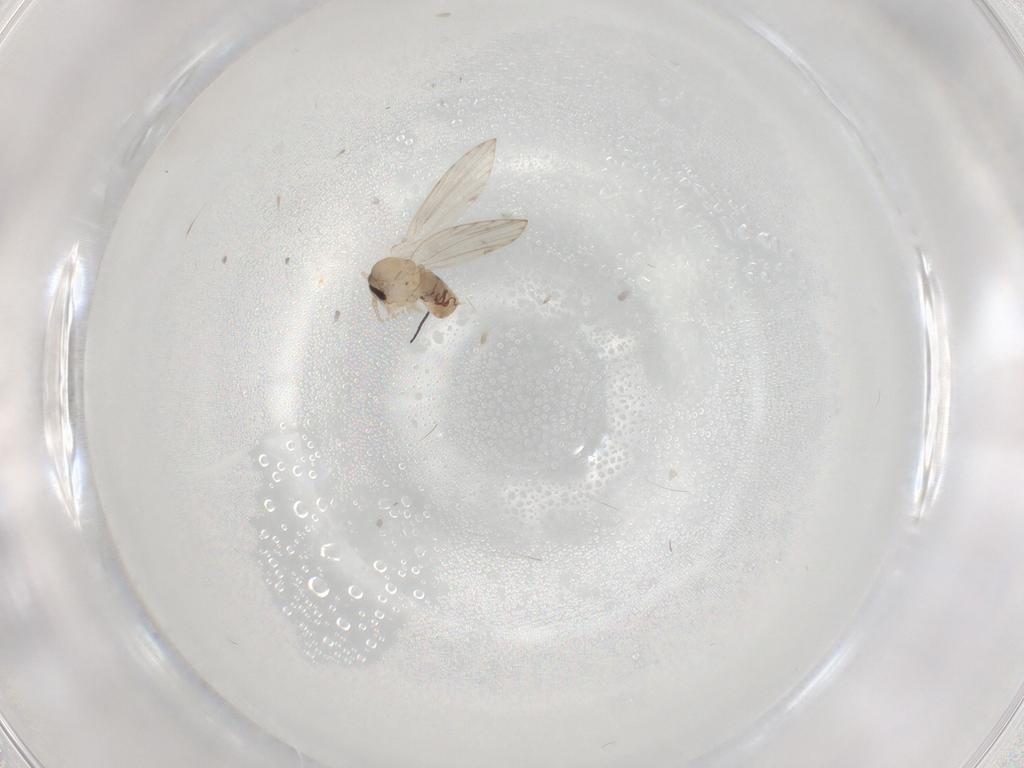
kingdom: Animalia
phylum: Arthropoda
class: Insecta
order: Diptera
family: Psychodidae
